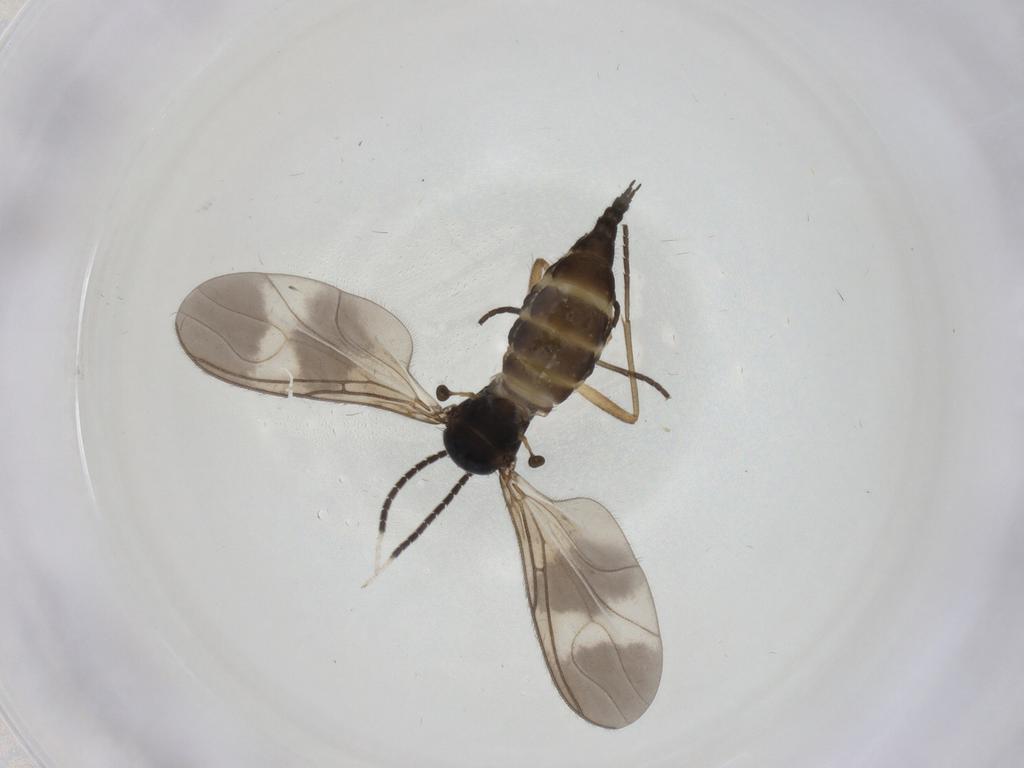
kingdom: Animalia
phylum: Arthropoda
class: Insecta
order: Diptera
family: Sciaridae
